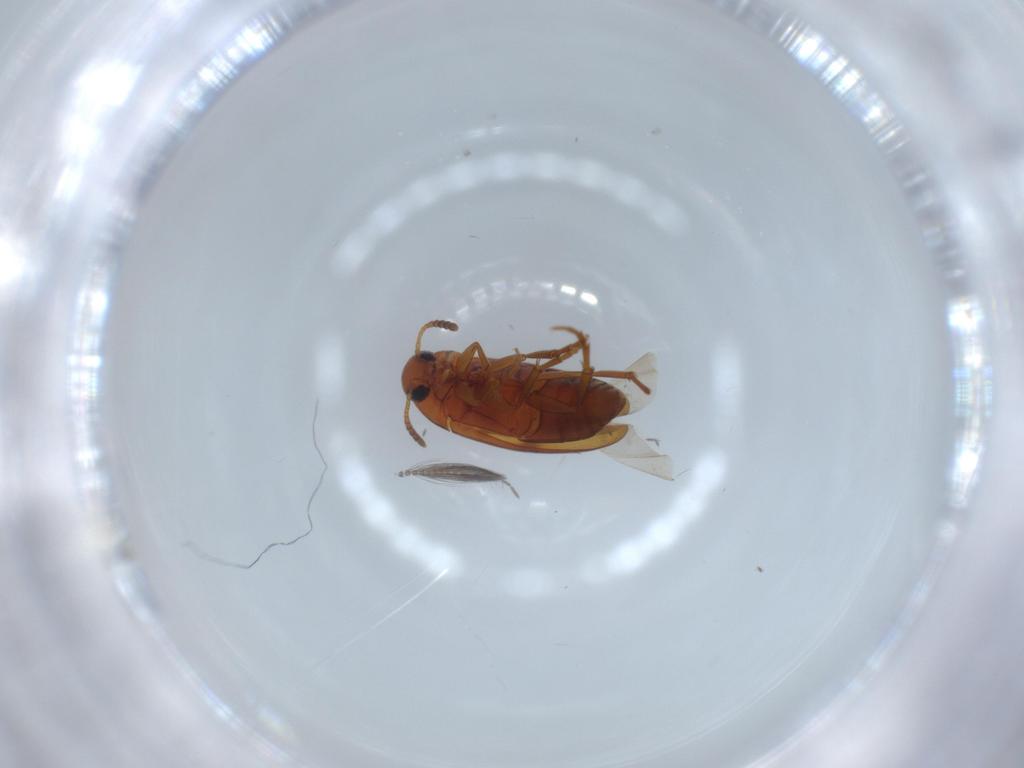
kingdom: Animalia
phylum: Arthropoda
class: Insecta
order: Coleoptera
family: Scraptiidae
